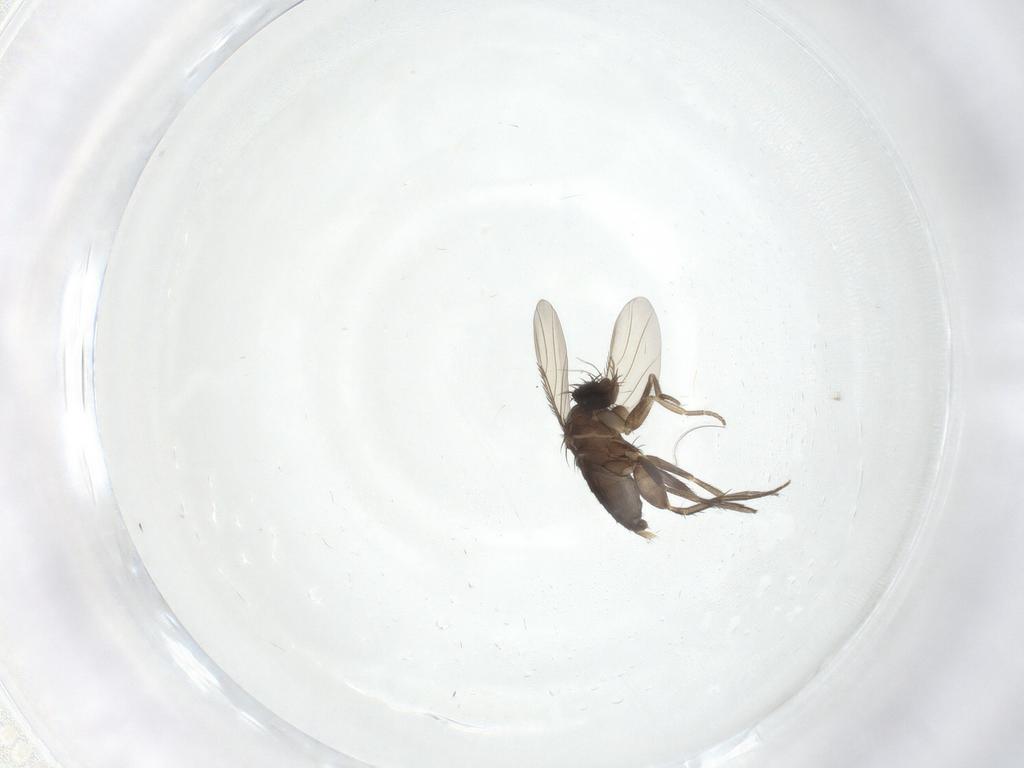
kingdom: Animalia
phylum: Arthropoda
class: Insecta
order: Diptera
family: Phoridae
